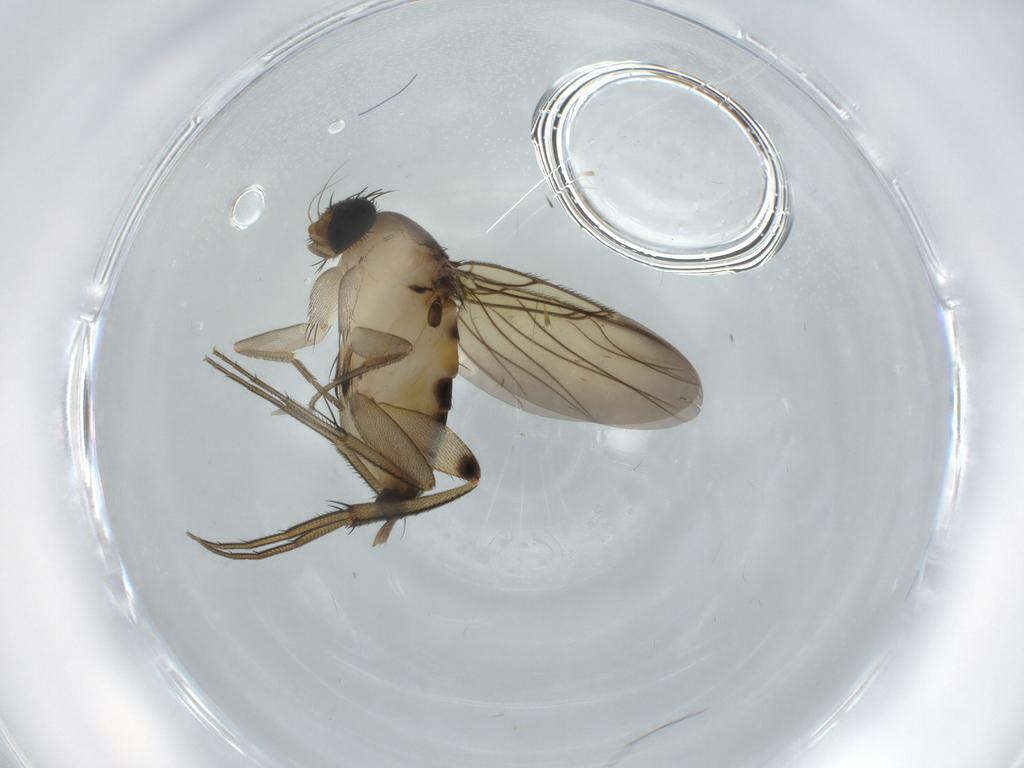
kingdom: Animalia
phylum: Arthropoda
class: Insecta
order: Diptera
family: Phoridae
